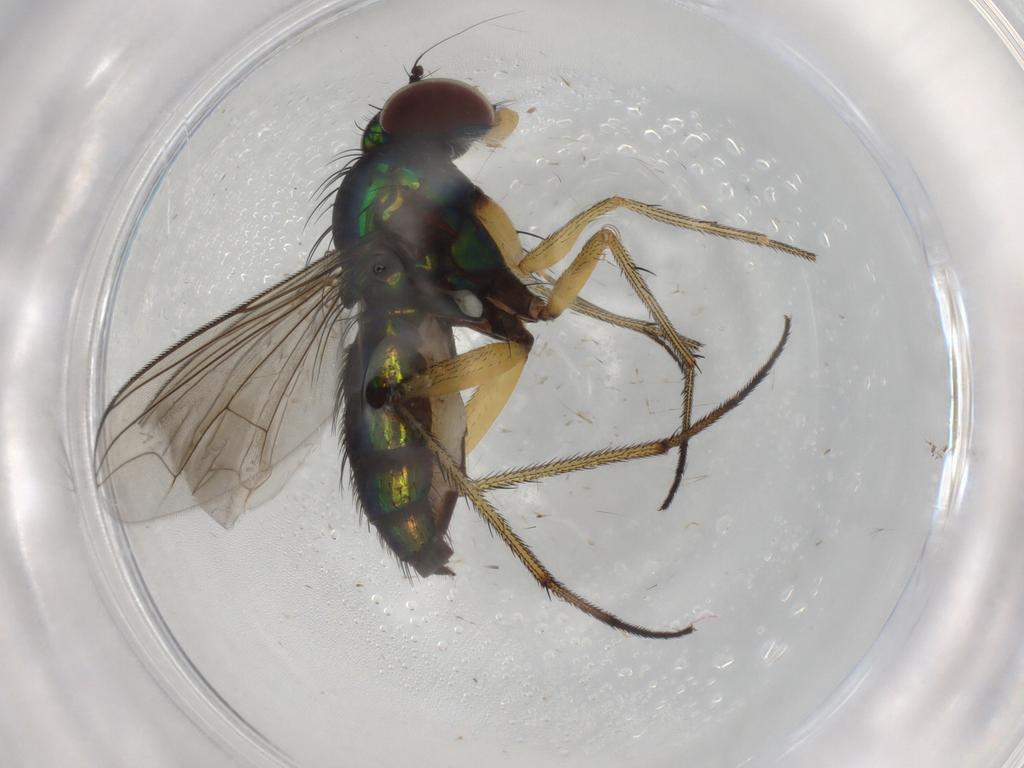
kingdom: Animalia
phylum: Arthropoda
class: Insecta
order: Diptera
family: Dolichopodidae
